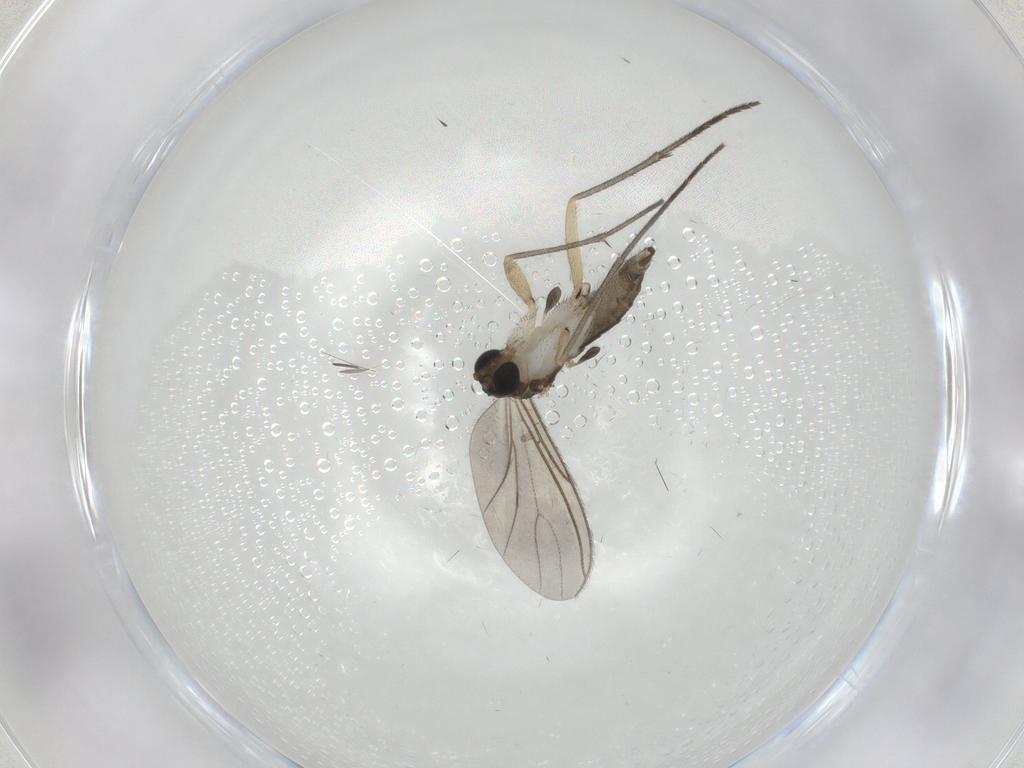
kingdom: Animalia
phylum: Arthropoda
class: Insecta
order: Diptera
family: Sciaridae
